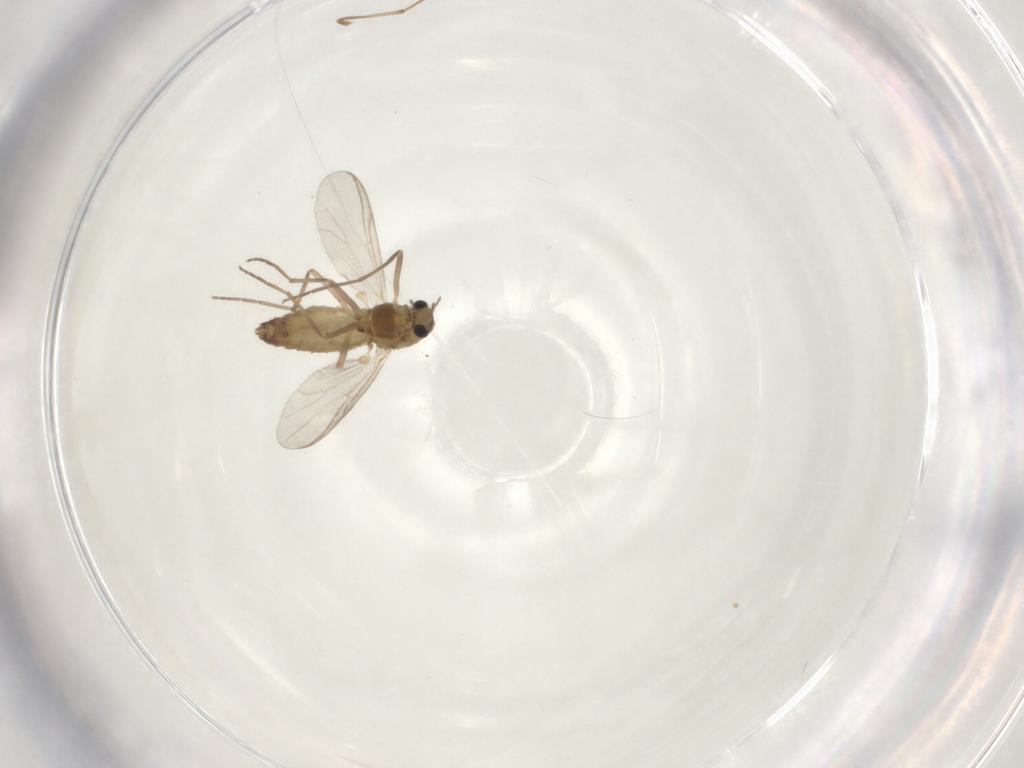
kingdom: Animalia
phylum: Arthropoda
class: Insecta
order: Diptera
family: Chironomidae
